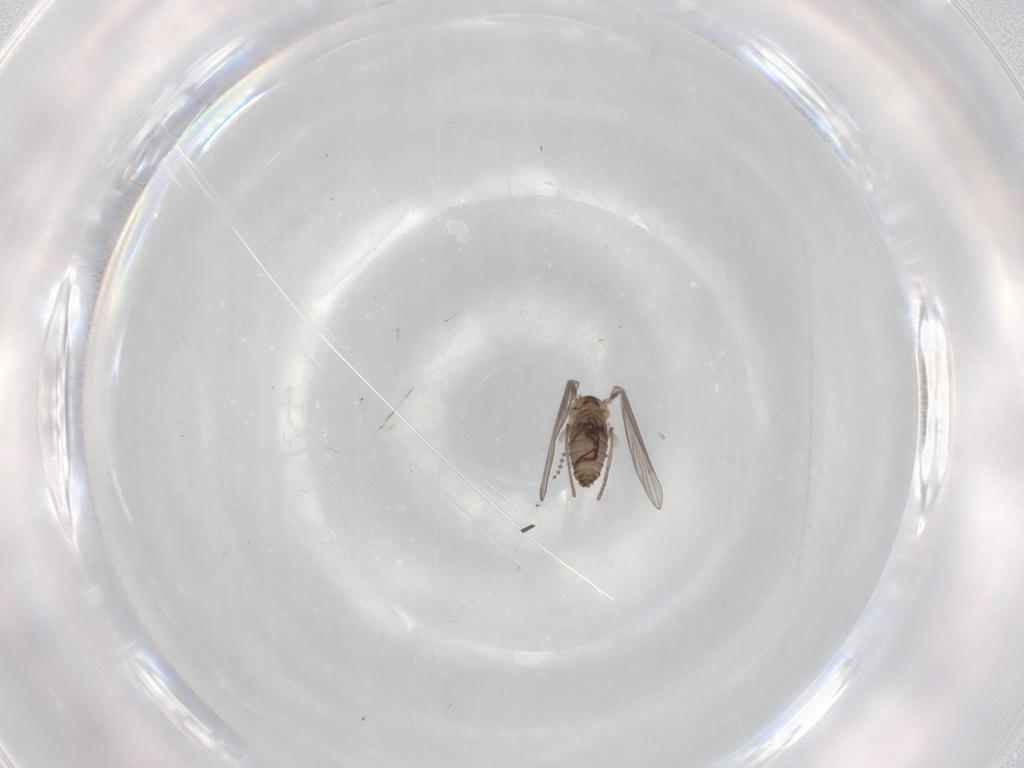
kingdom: Animalia
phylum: Arthropoda
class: Insecta
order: Diptera
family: Psychodidae
